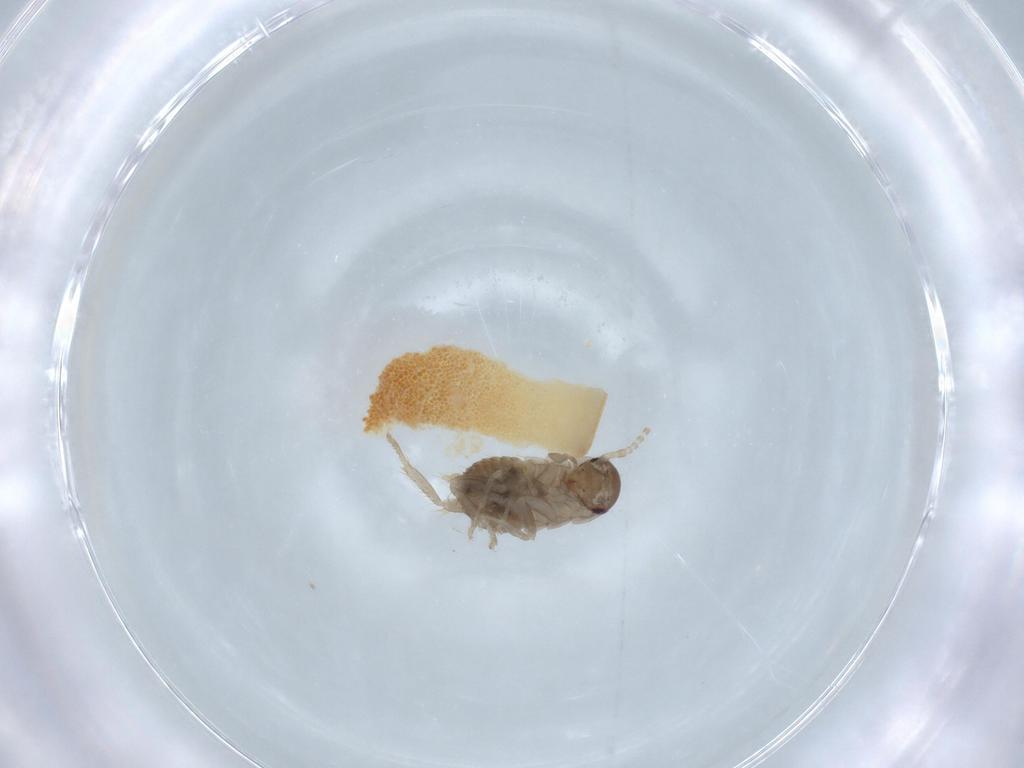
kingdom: Animalia
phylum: Arthropoda
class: Insecta
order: Blattodea
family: Ectobiidae
